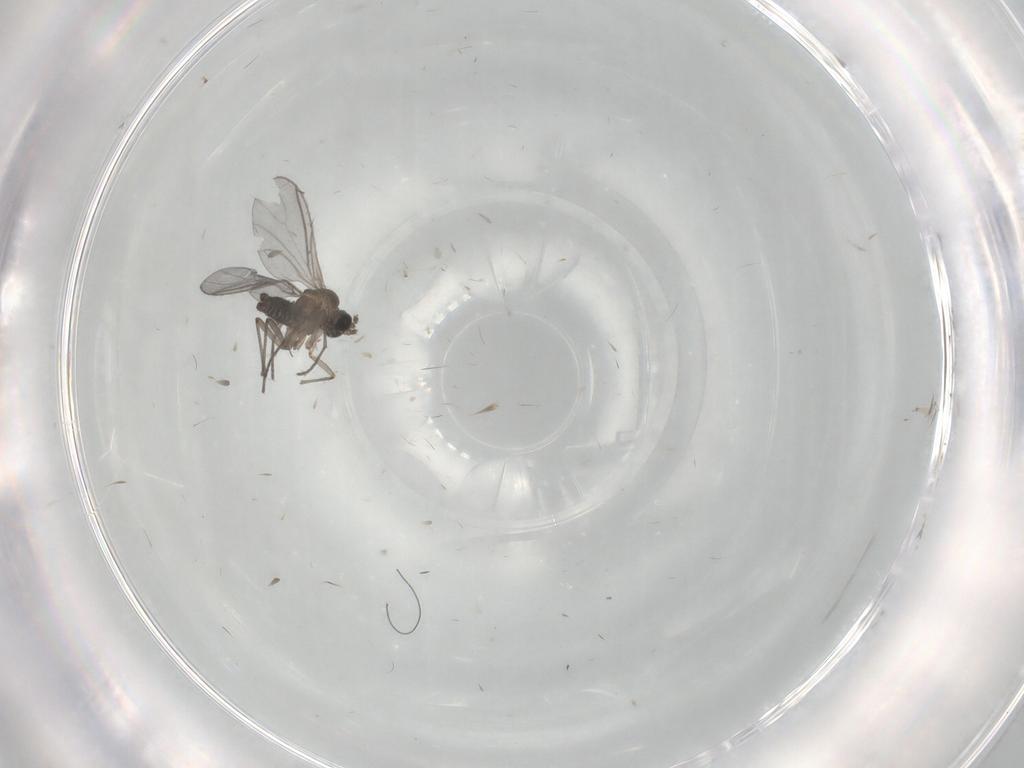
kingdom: Animalia
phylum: Arthropoda
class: Insecta
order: Diptera
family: Sciaridae
